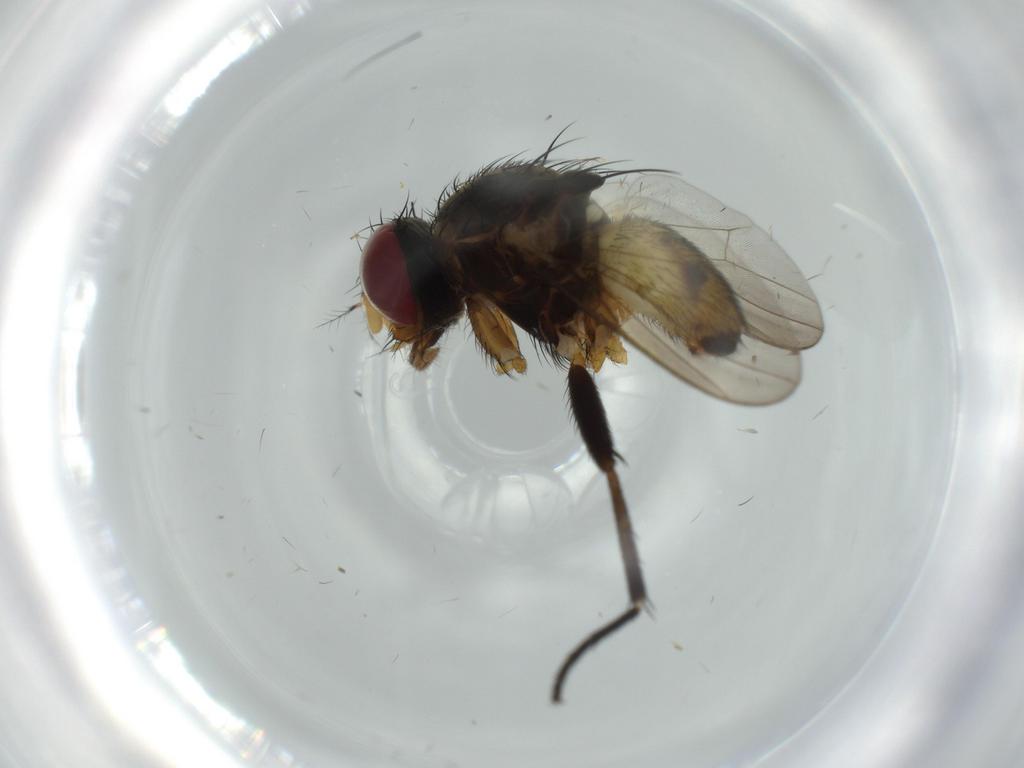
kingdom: Animalia
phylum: Arthropoda
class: Insecta
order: Diptera
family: Anthomyiidae
